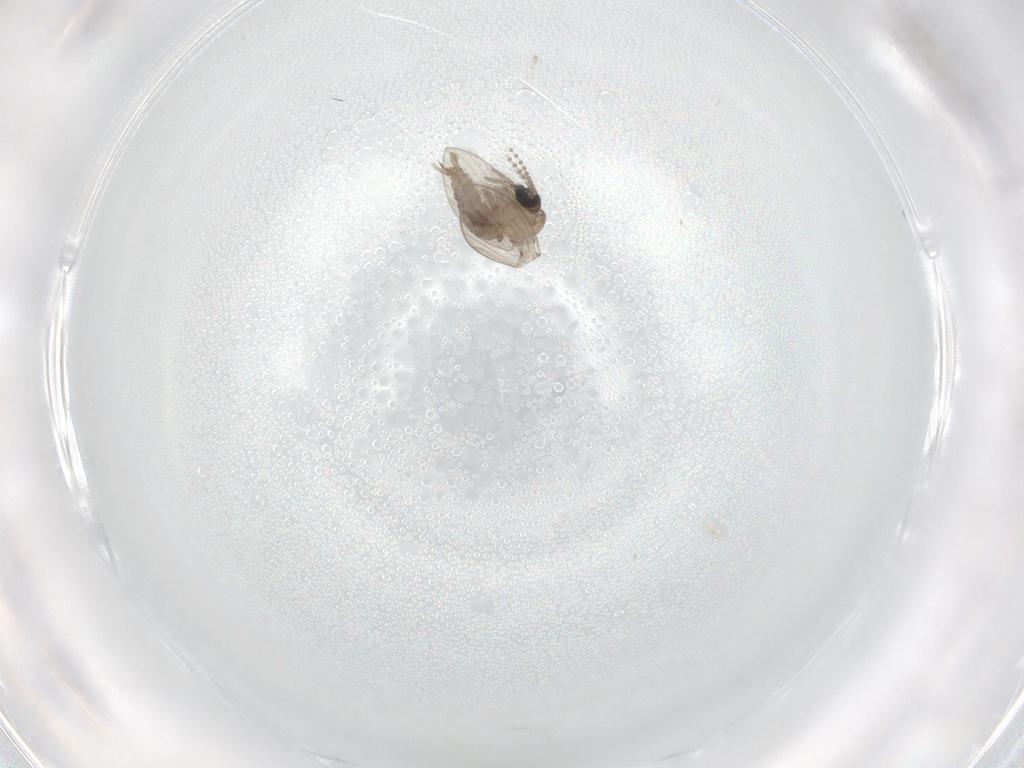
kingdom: Animalia
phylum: Arthropoda
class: Insecta
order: Diptera
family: Psychodidae
